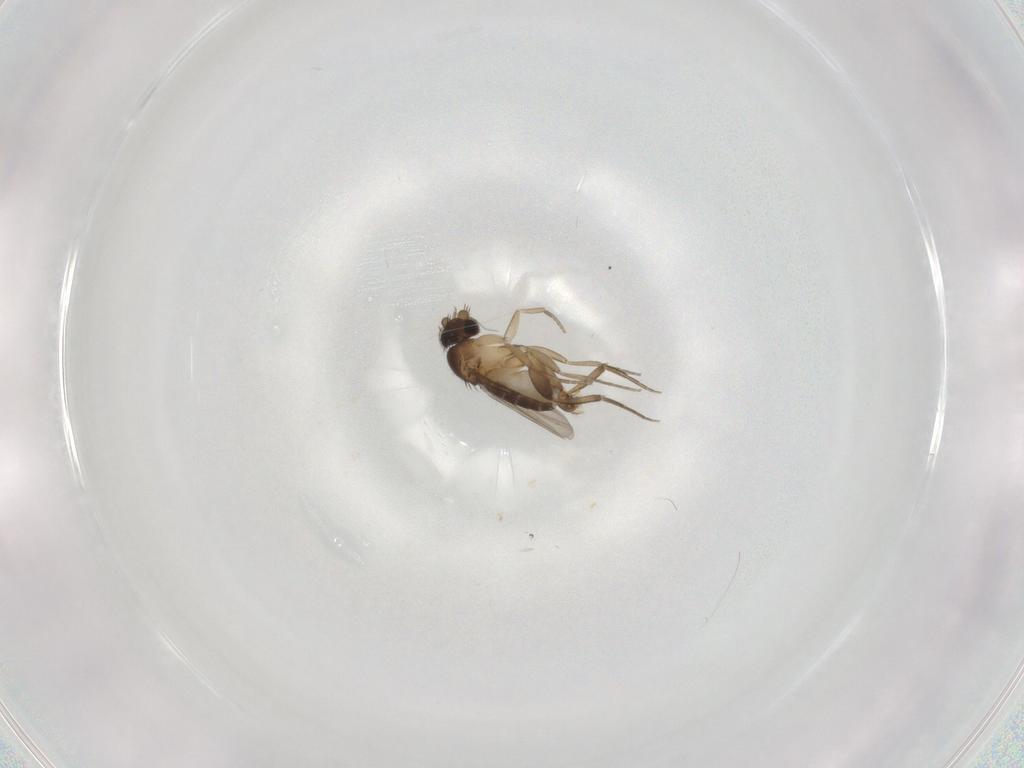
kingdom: Animalia
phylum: Arthropoda
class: Insecta
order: Diptera
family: Phoridae
